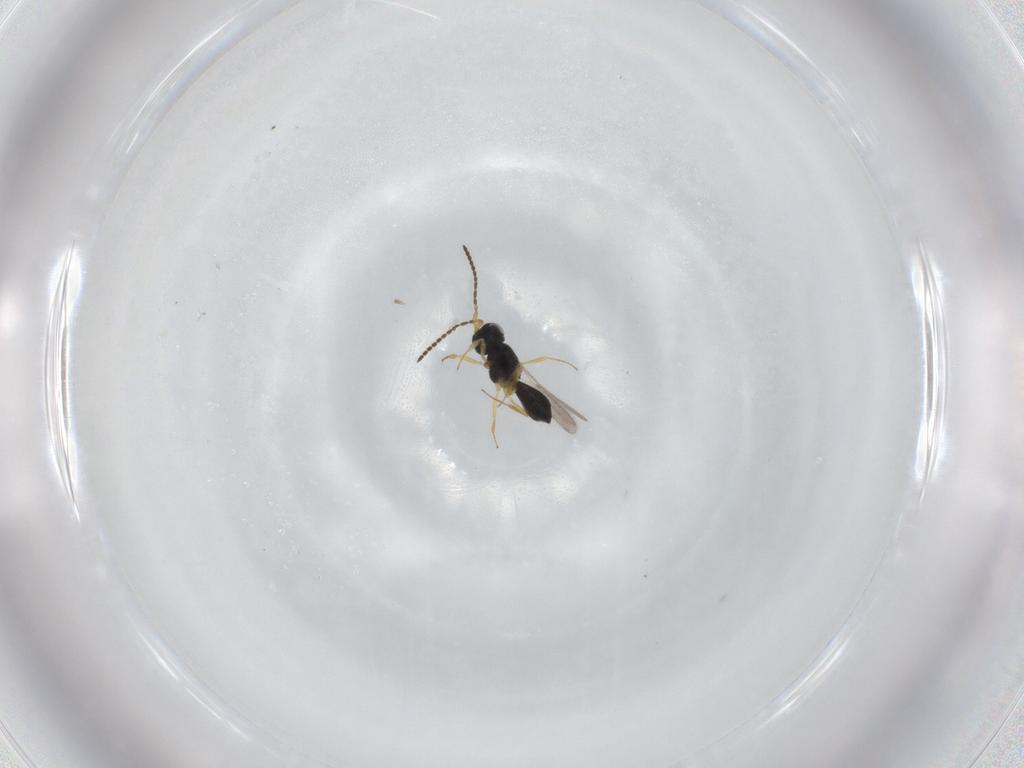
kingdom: Animalia
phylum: Arthropoda
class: Insecta
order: Hymenoptera
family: Scelionidae
